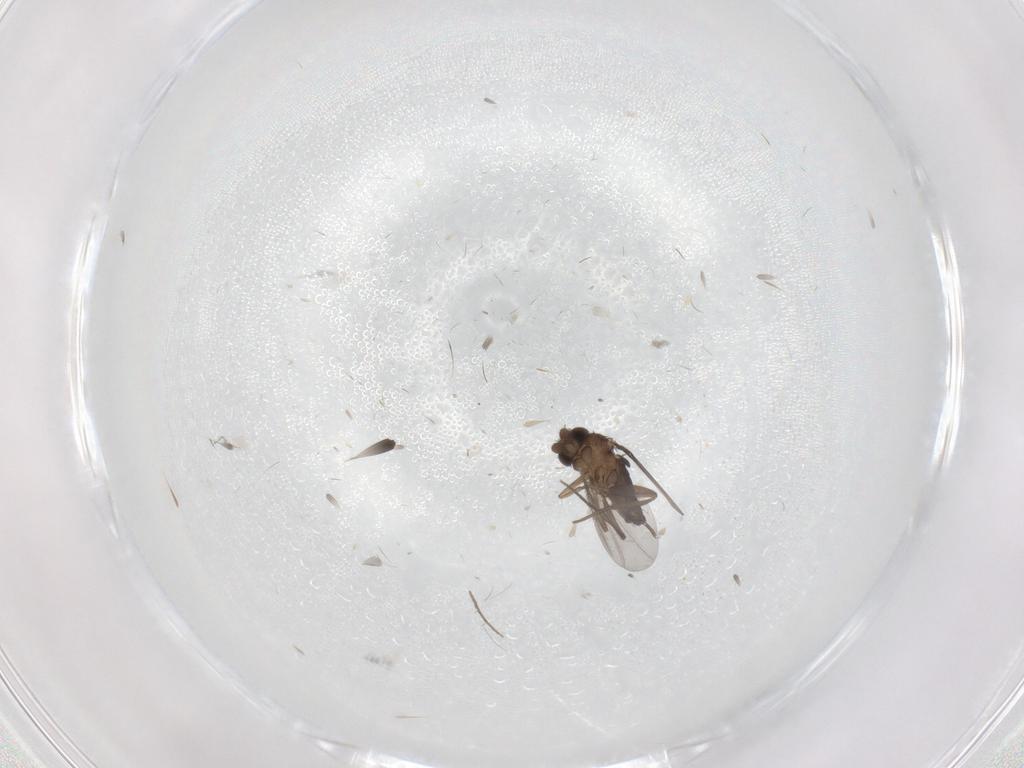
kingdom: Animalia
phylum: Arthropoda
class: Insecta
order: Diptera
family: Phoridae
